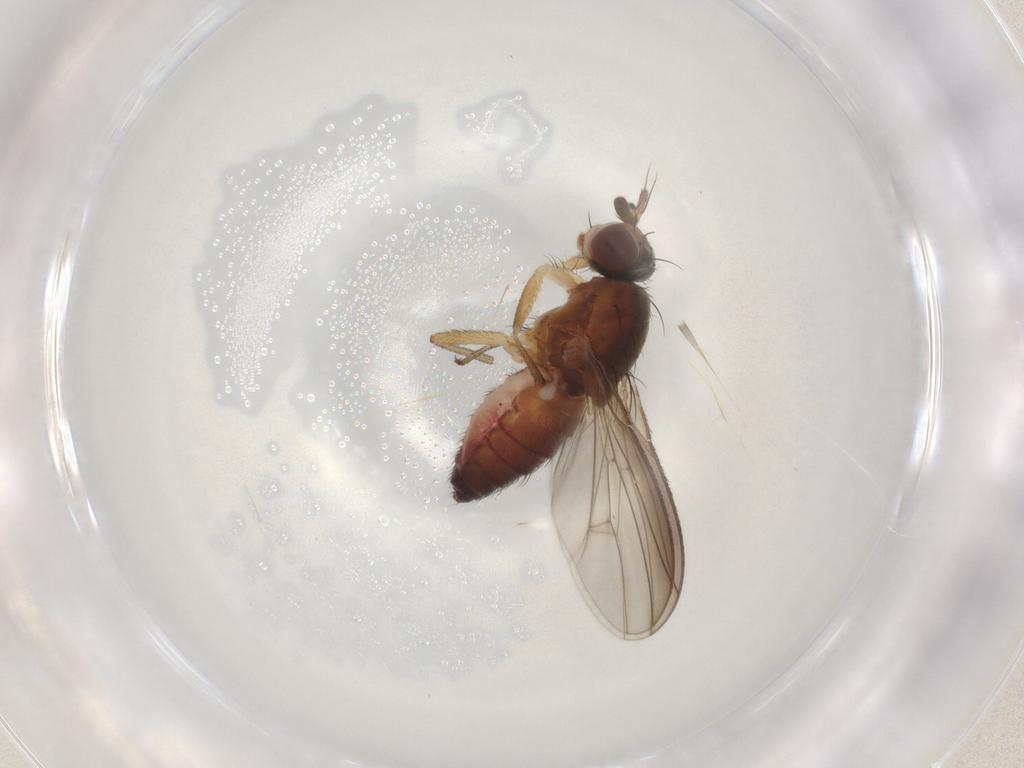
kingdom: Animalia
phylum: Arthropoda
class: Insecta
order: Diptera
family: Heleomyzidae
